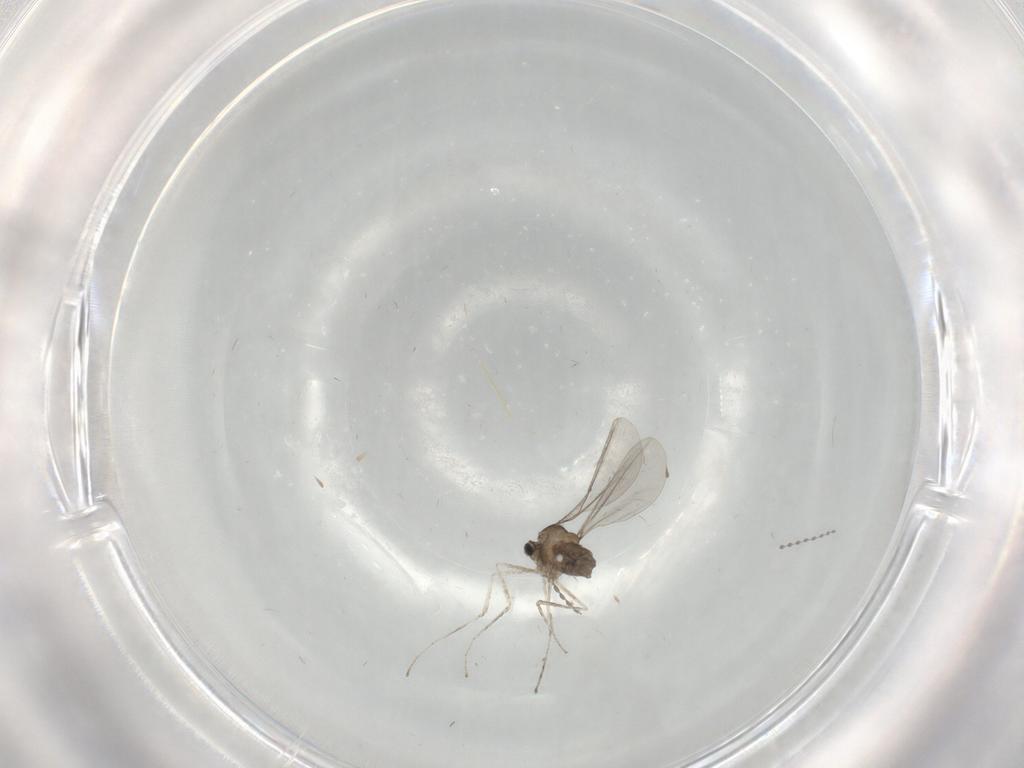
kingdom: Animalia
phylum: Arthropoda
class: Insecta
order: Diptera
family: Cecidomyiidae
